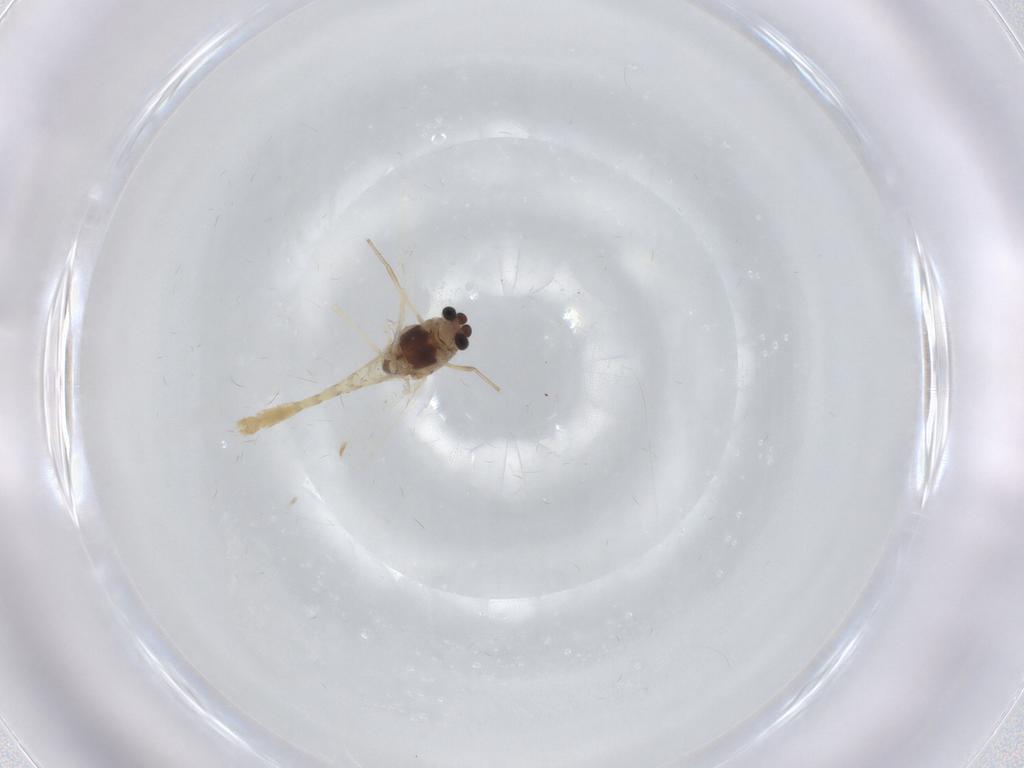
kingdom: Animalia
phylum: Arthropoda
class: Insecta
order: Diptera
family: Chironomidae
